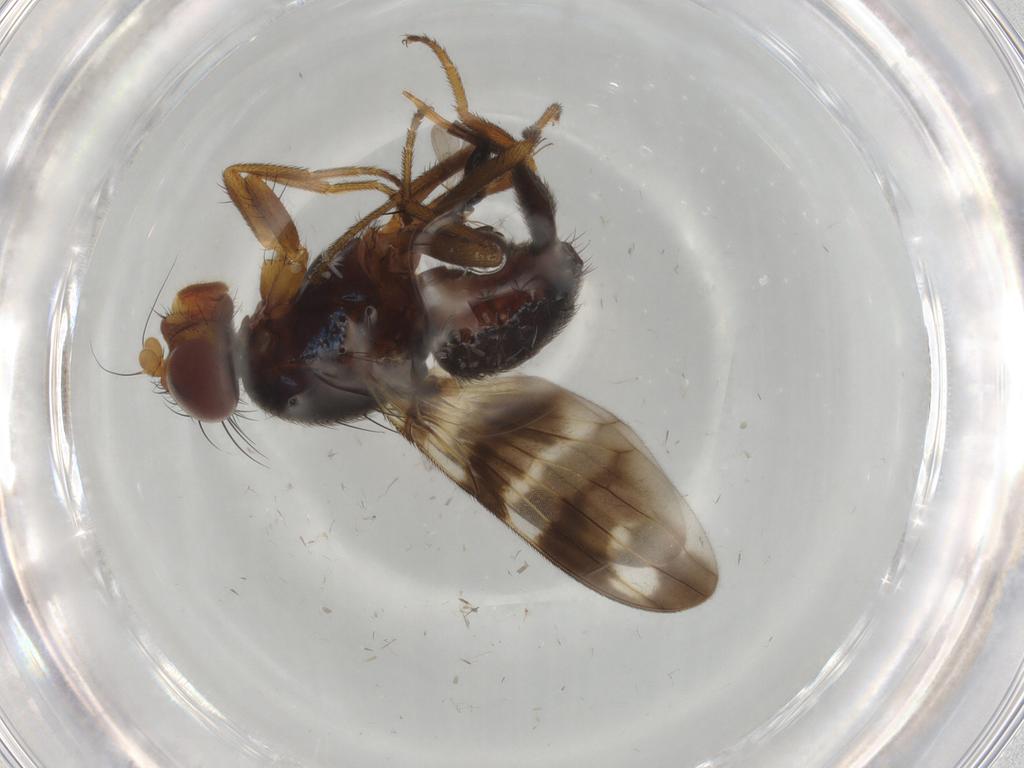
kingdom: Animalia
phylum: Arthropoda
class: Insecta
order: Diptera
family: Ulidiidae
